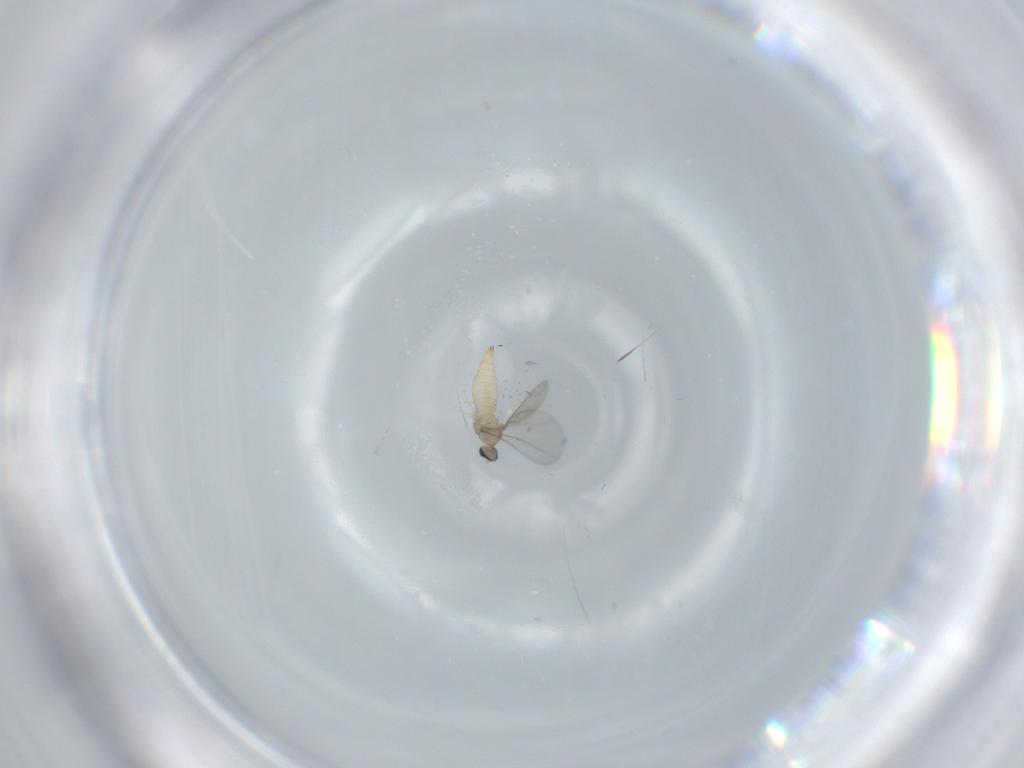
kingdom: Animalia
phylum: Arthropoda
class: Insecta
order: Diptera
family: Cecidomyiidae
